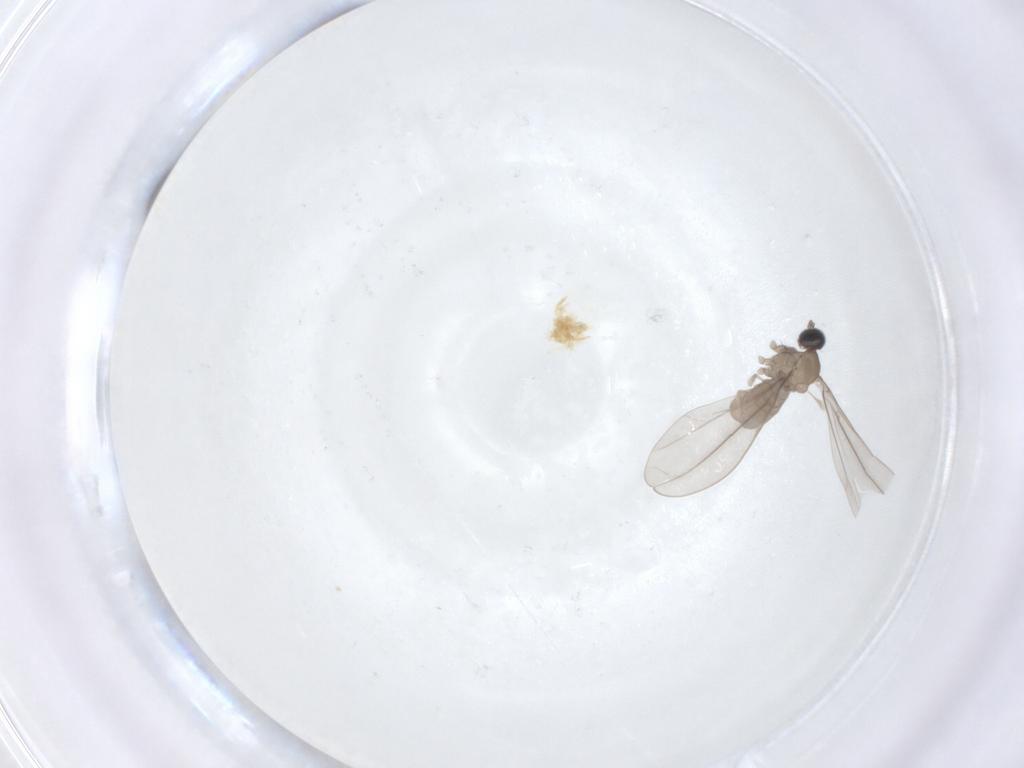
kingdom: Animalia
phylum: Arthropoda
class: Insecta
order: Diptera
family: Cecidomyiidae
